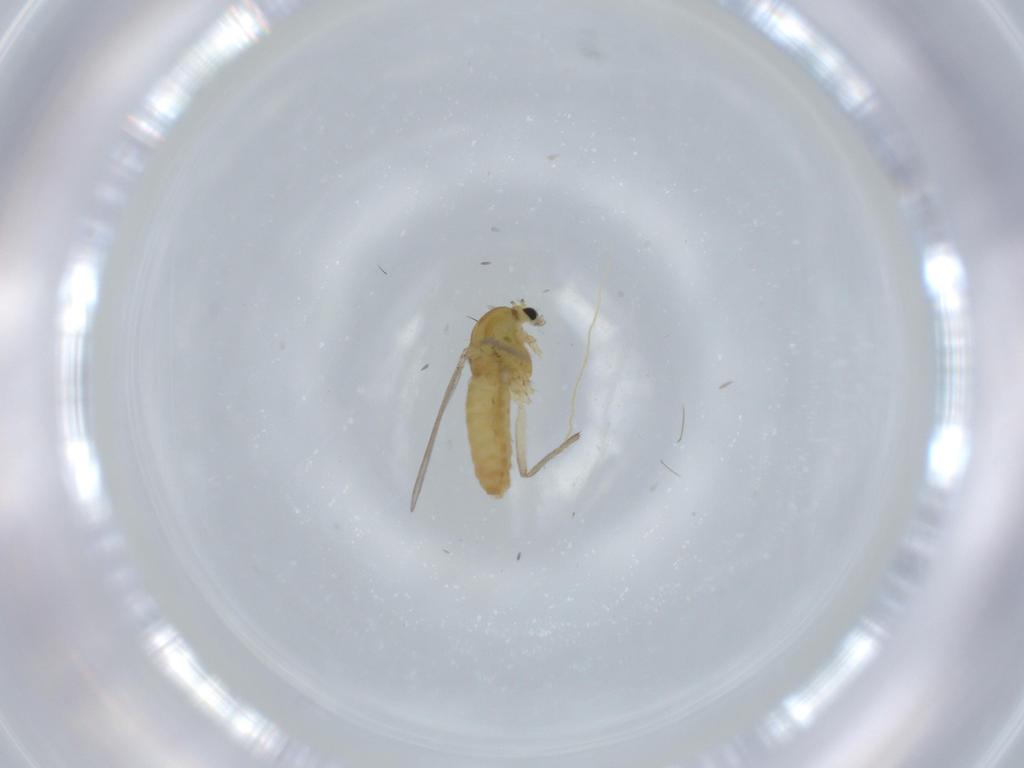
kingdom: Animalia
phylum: Arthropoda
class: Insecta
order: Diptera
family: Chironomidae
